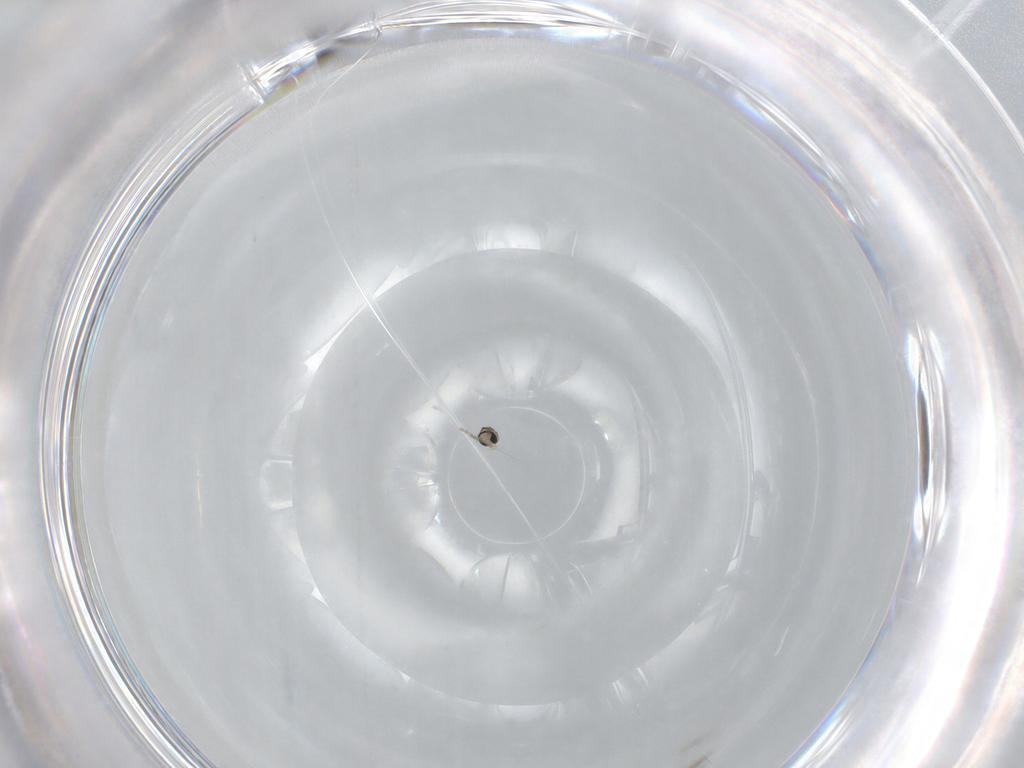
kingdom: Animalia
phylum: Arthropoda
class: Insecta
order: Diptera
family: Cecidomyiidae
